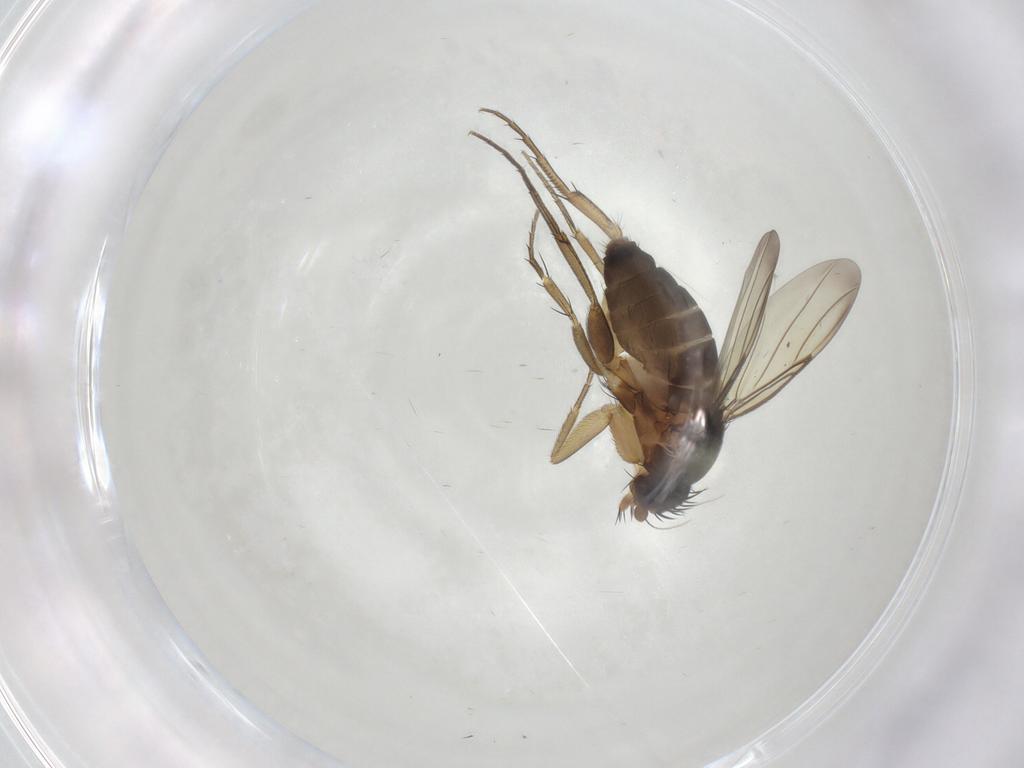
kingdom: Animalia
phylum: Arthropoda
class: Insecta
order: Diptera
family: Phoridae
